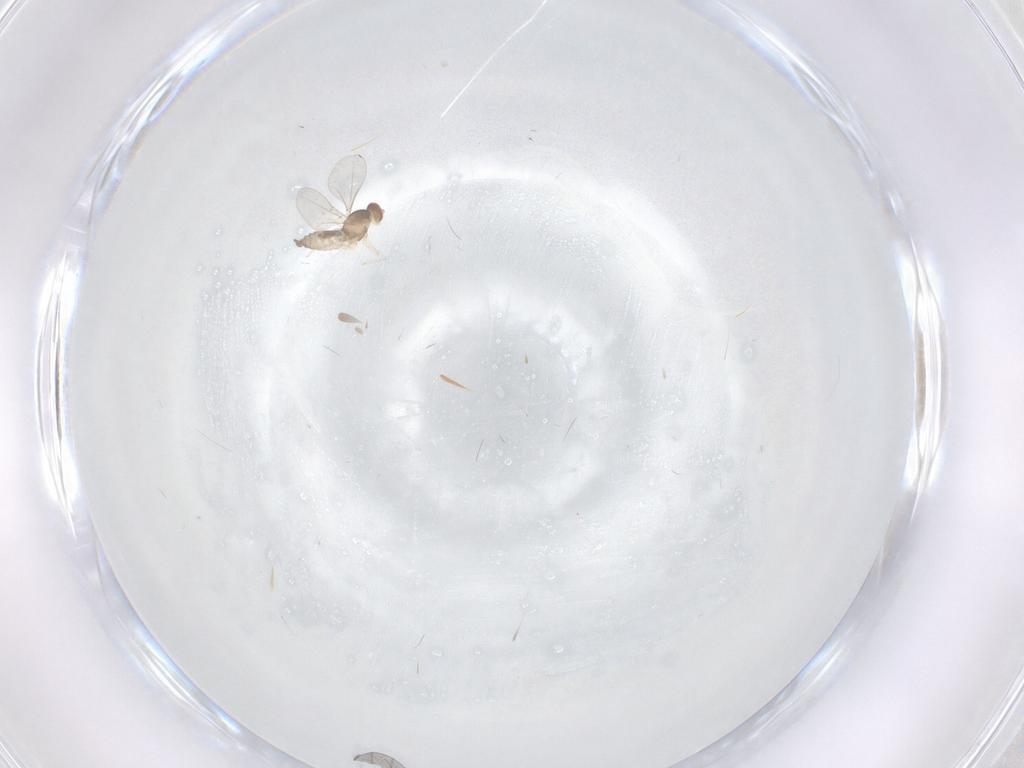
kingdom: Animalia
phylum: Arthropoda
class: Insecta
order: Diptera
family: Cecidomyiidae
